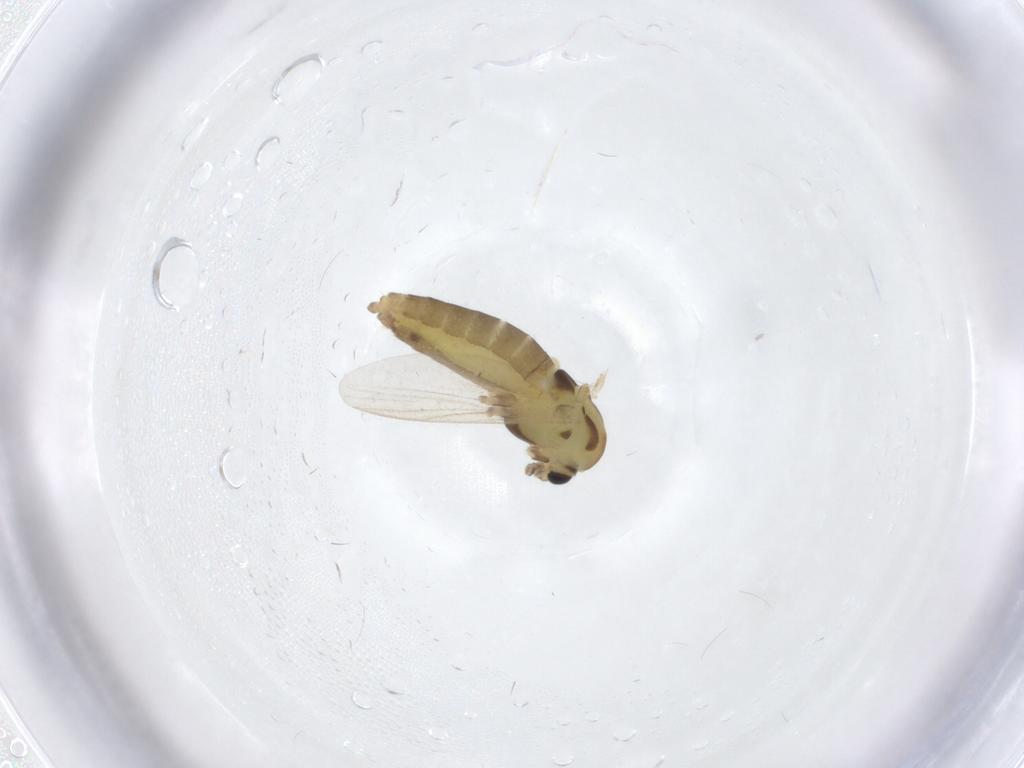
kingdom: Animalia
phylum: Arthropoda
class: Insecta
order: Diptera
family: Chironomidae
